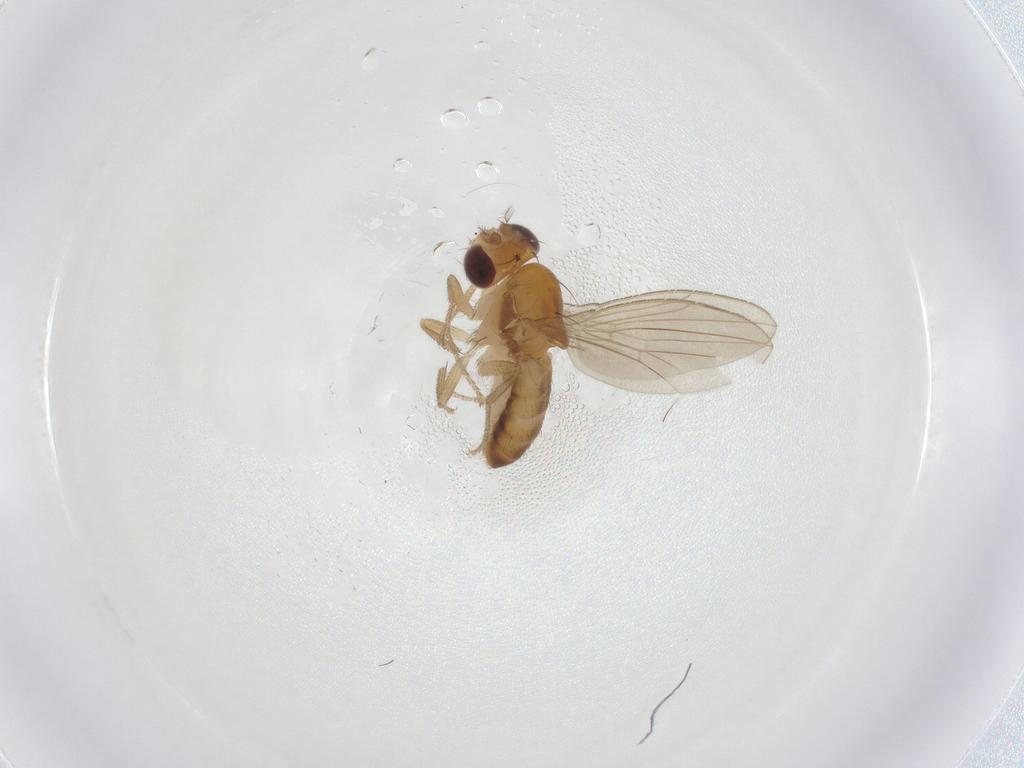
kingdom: Animalia
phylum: Arthropoda
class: Insecta
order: Diptera
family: Drosophilidae
